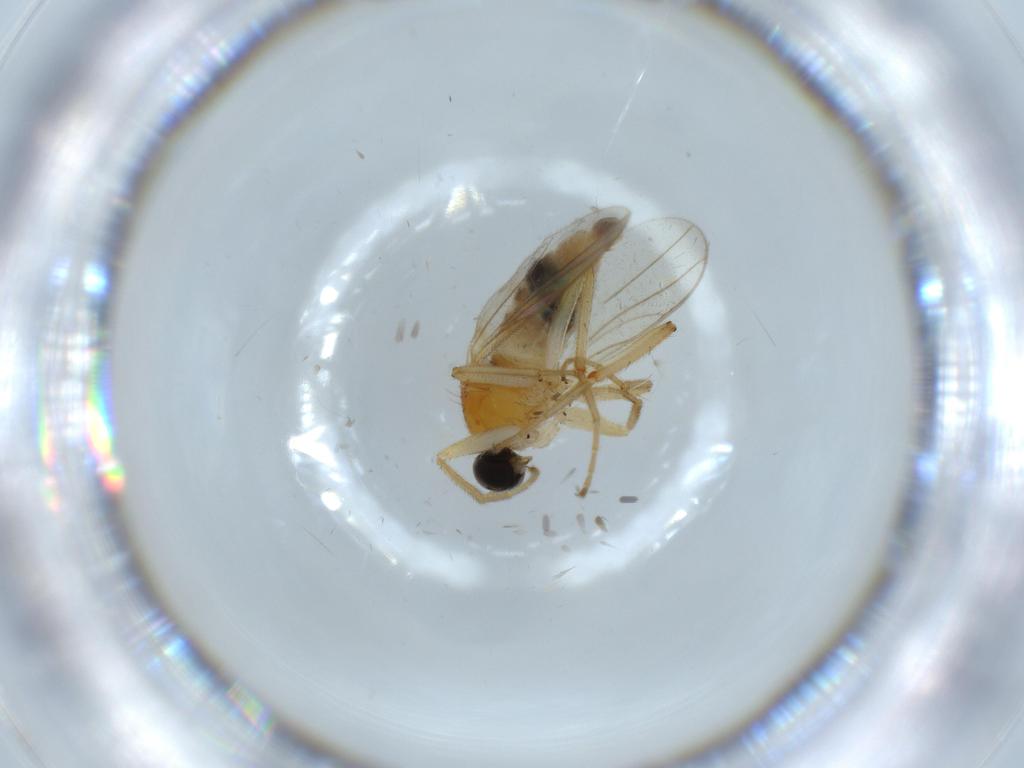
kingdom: Animalia
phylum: Arthropoda
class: Insecta
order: Diptera
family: Hybotidae
